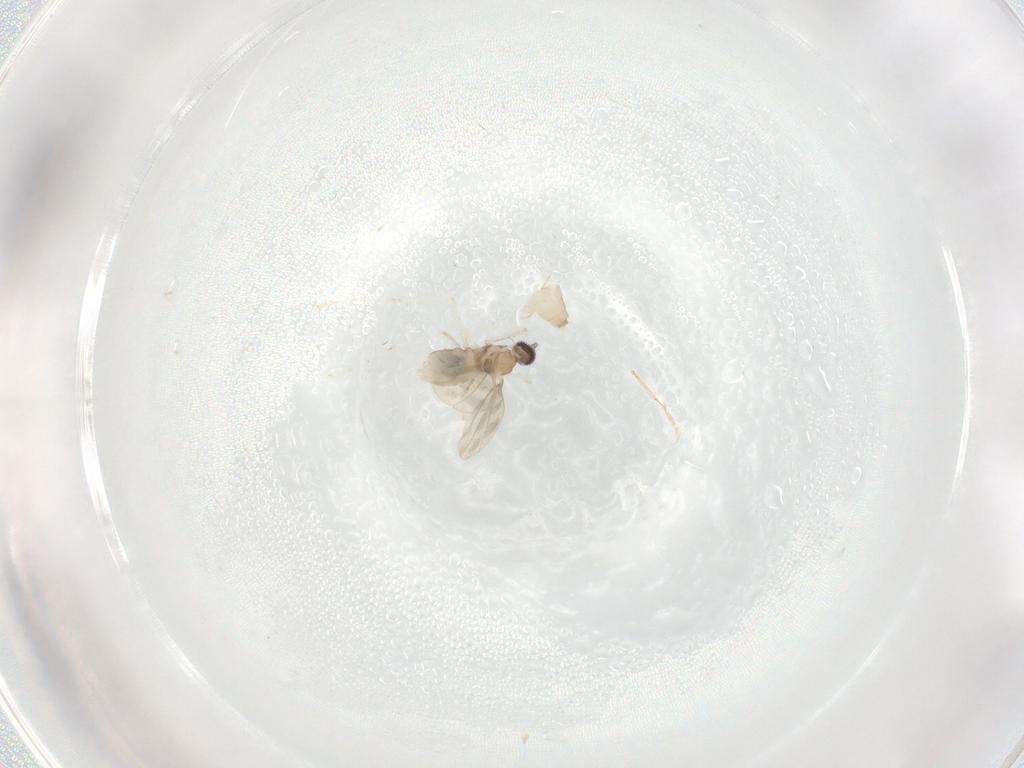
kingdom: Animalia
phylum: Arthropoda
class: Insecta
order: Diptera
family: Cecidomyiidae
